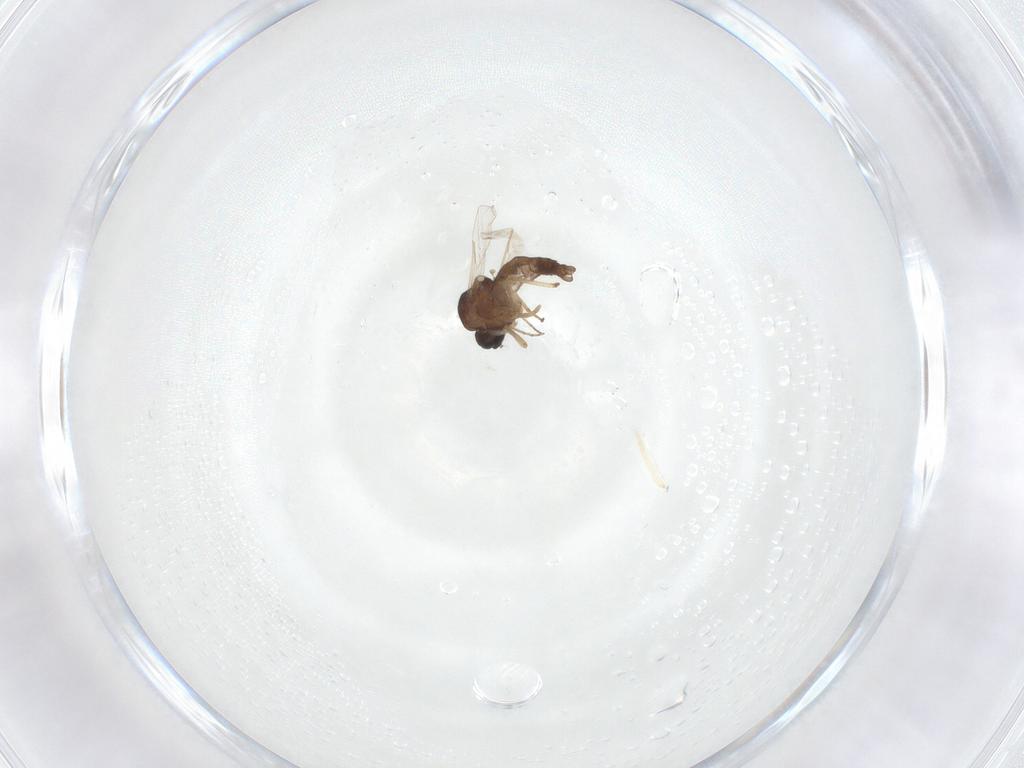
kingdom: Animalia
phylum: Arthropoda
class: Insecta
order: Diptera
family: Ceratopogonidae
